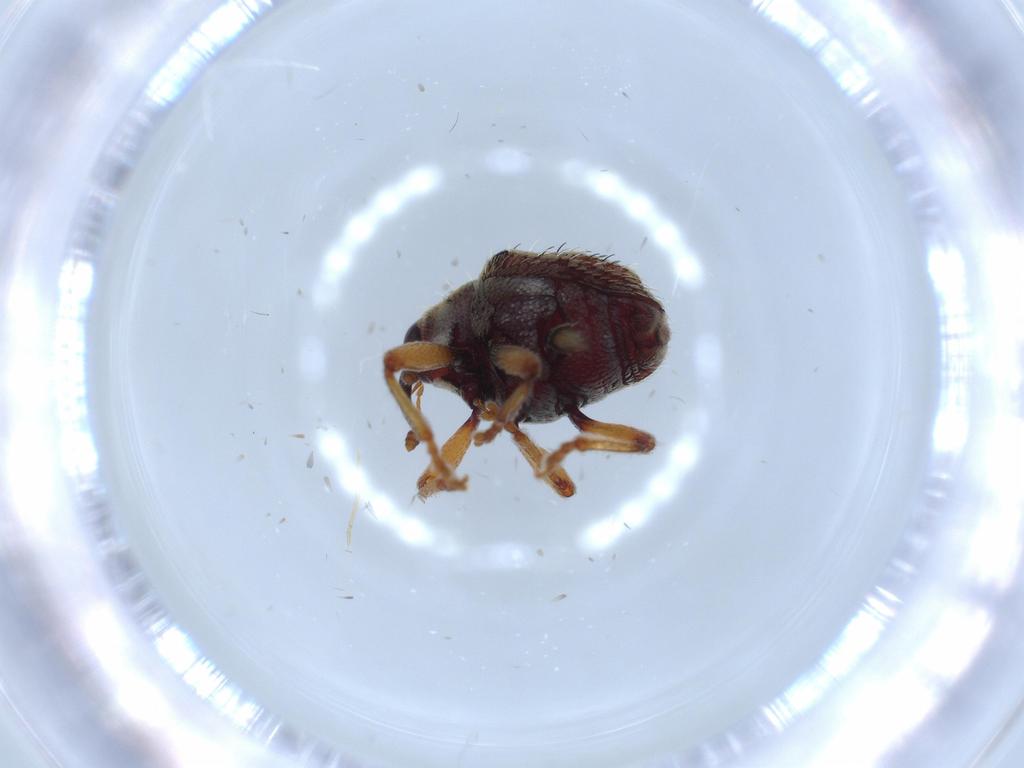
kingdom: Animalia
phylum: Arthropoda
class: Insecta
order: Coleoptera
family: Curculionidae
